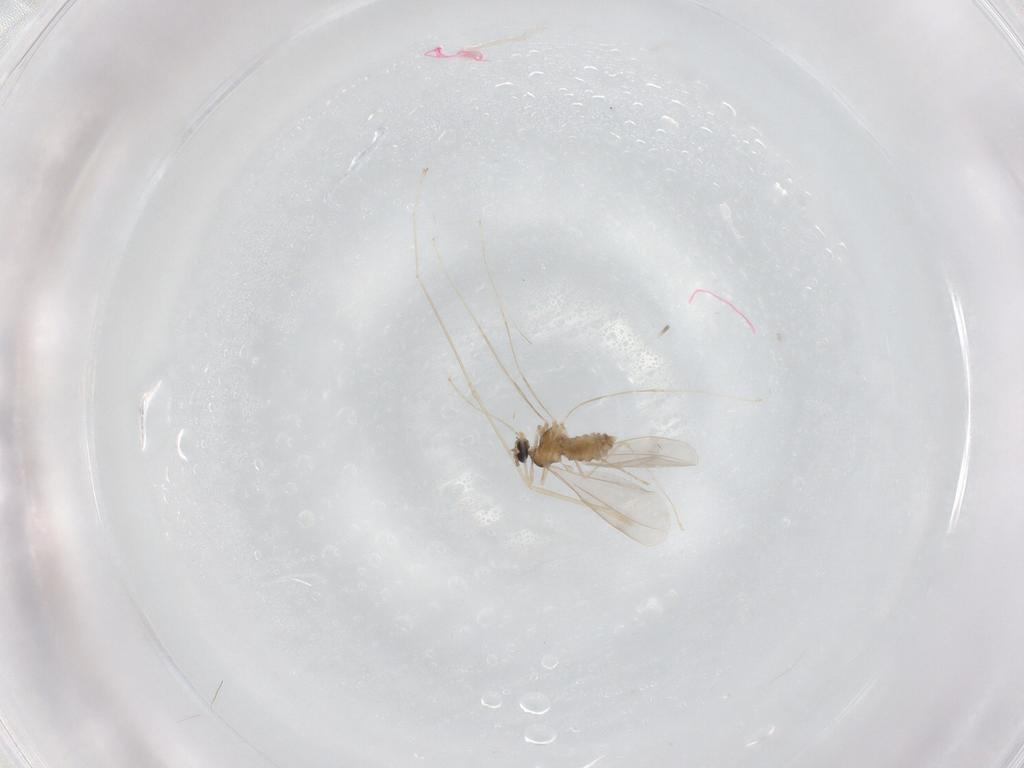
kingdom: Animalia
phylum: Arthropoda
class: Insecta
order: Diptera
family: Cecidomyiidae
